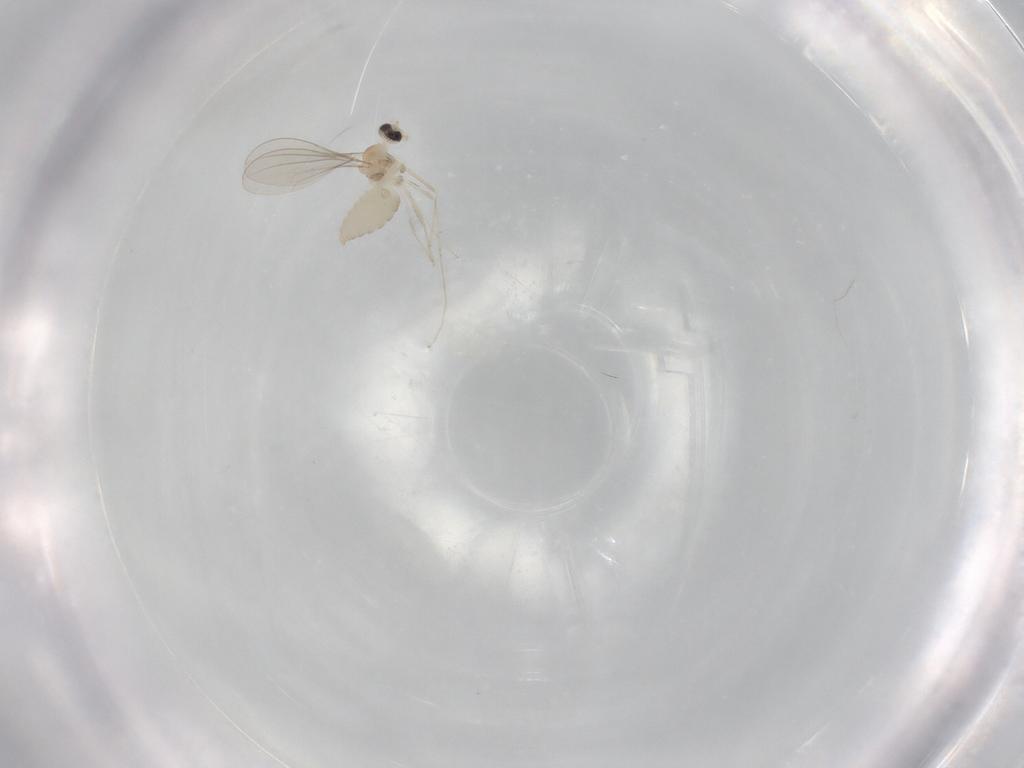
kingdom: Animalia
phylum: Arthropoda
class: Insecta
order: Diptera
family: Cecidomyiidae
